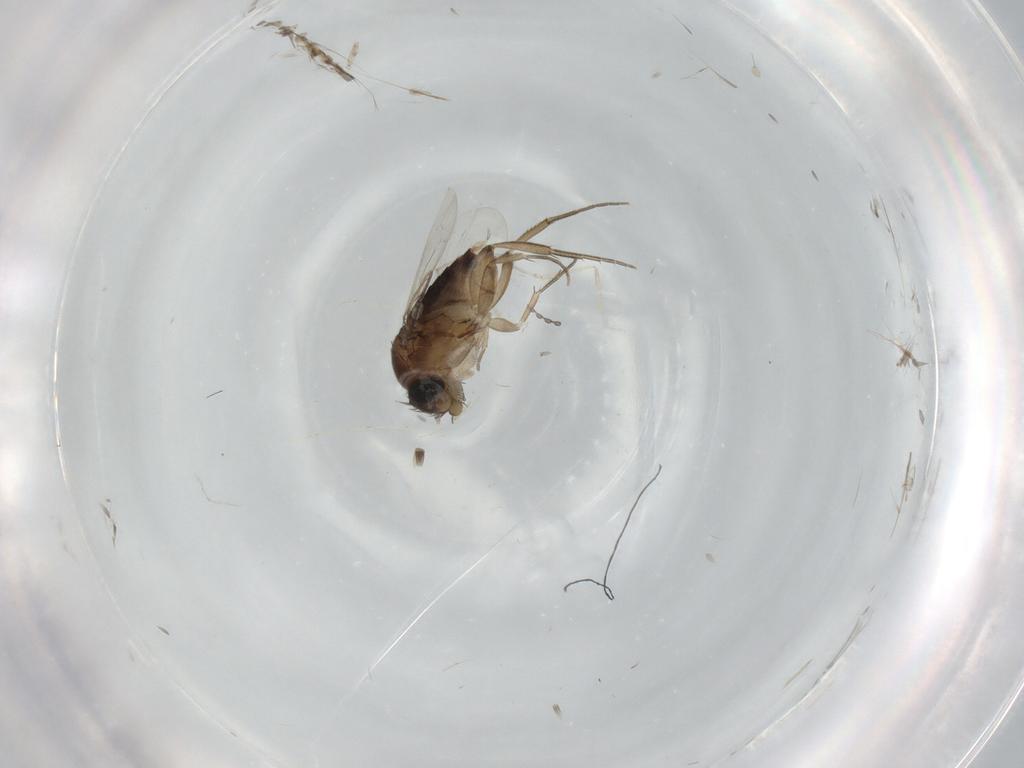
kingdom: Animalia
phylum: Arthropoda
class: Insecta
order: Diptera
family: Phoridae
